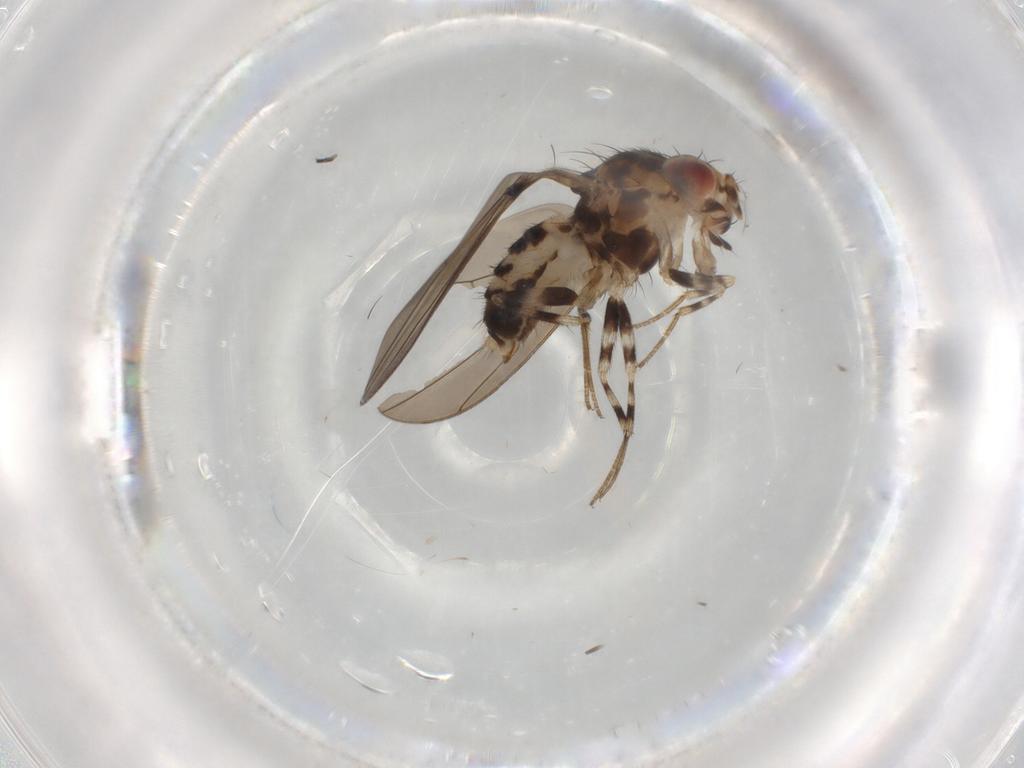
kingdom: Animalia
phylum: Arthropoda
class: Insecta
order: Diptera
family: Drosophilidae
